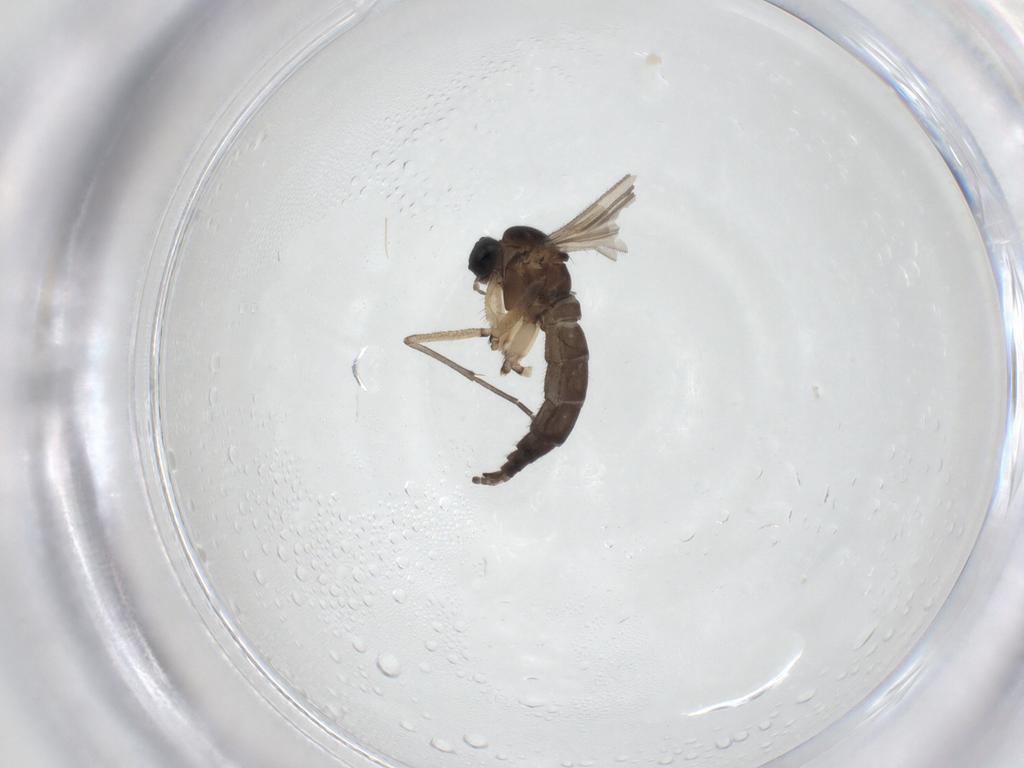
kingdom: Animalia
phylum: Arthropoda
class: Insecta
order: Diptera
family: Sciaridae
